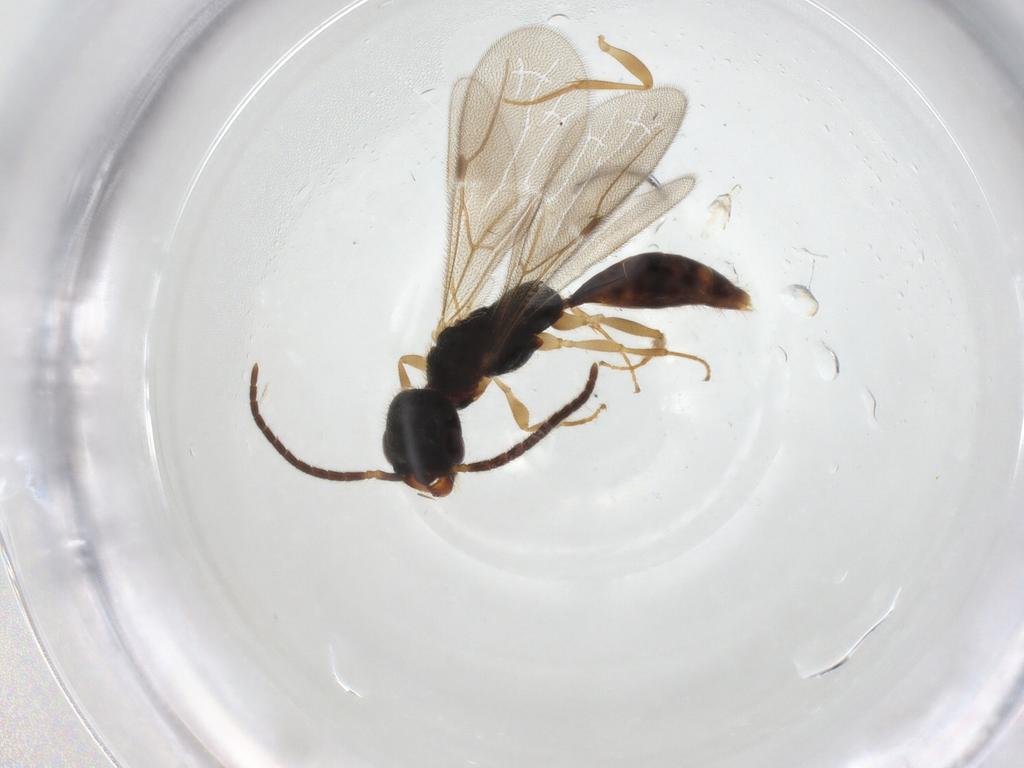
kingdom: Animalia
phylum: Arthropoda
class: Insecta
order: Hymenoptera
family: Bethylidae
